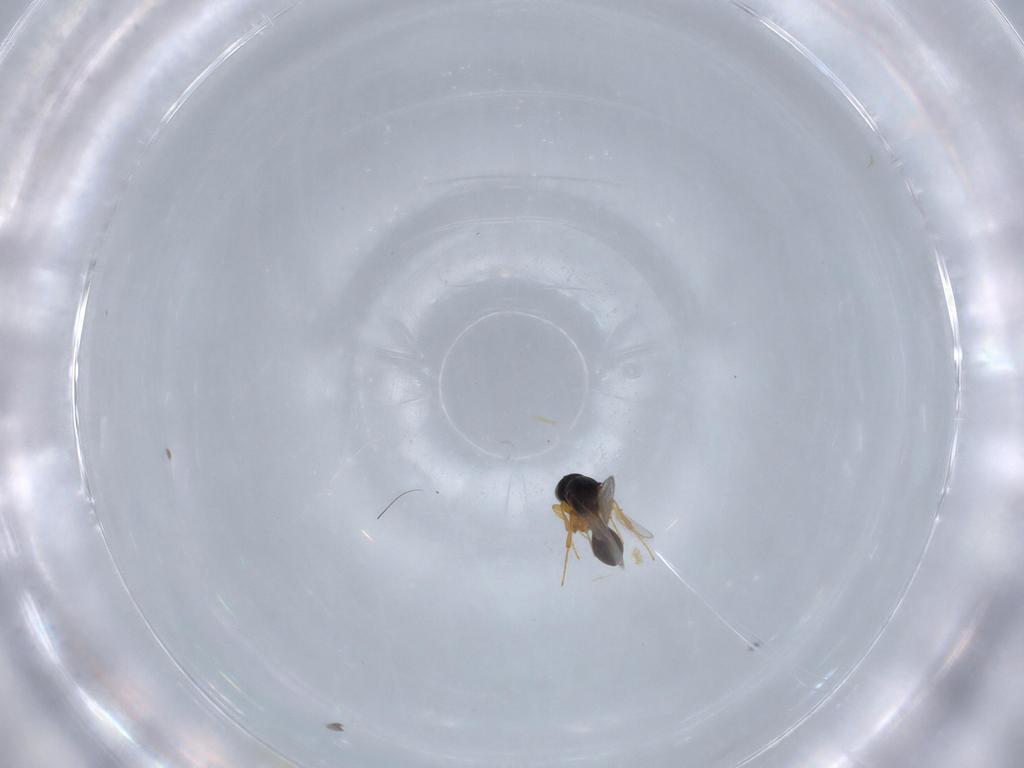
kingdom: Animalia
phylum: Arthropoda
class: Insecta
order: Hymenoptera
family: Platygastridae
